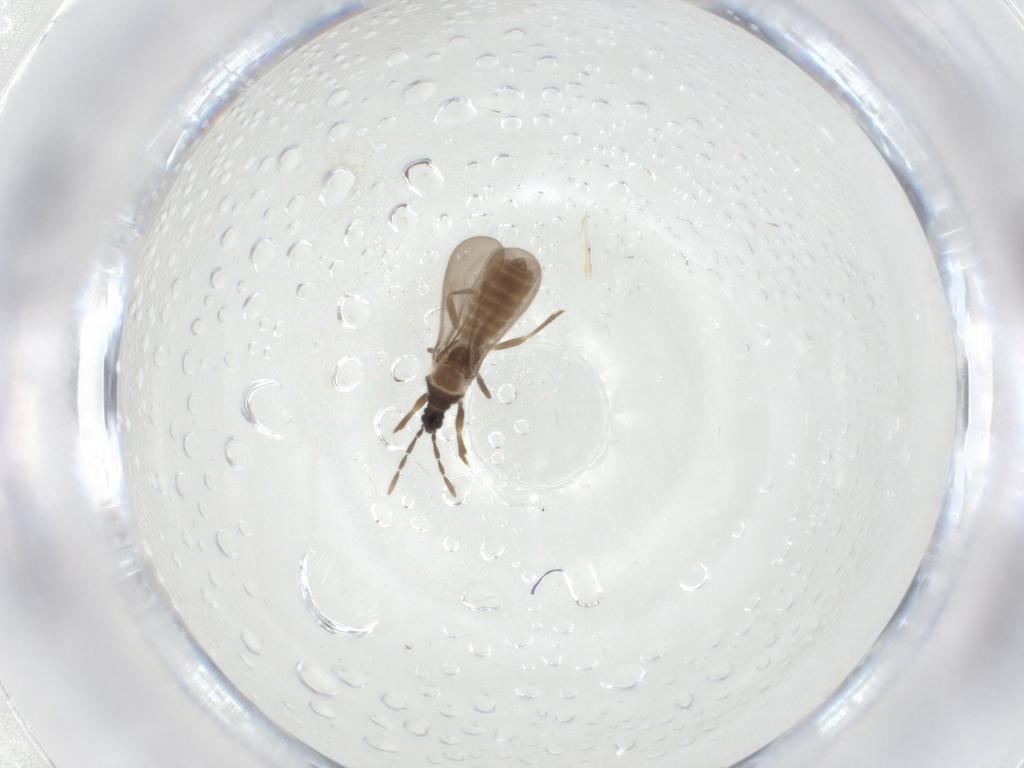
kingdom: Animalia
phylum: Arthropoda
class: Insecta
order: Hemiptera
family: Enicocephalidae
